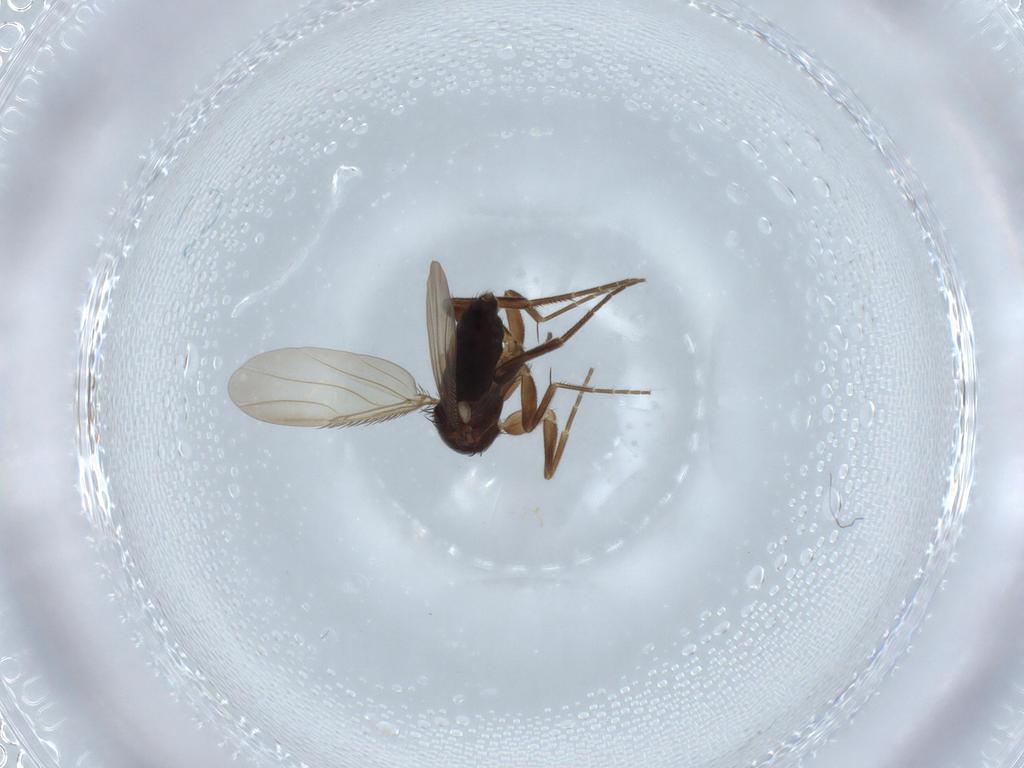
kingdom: Animalia
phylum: Arthropoda
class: Insecta
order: Diptera
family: Phoridae
